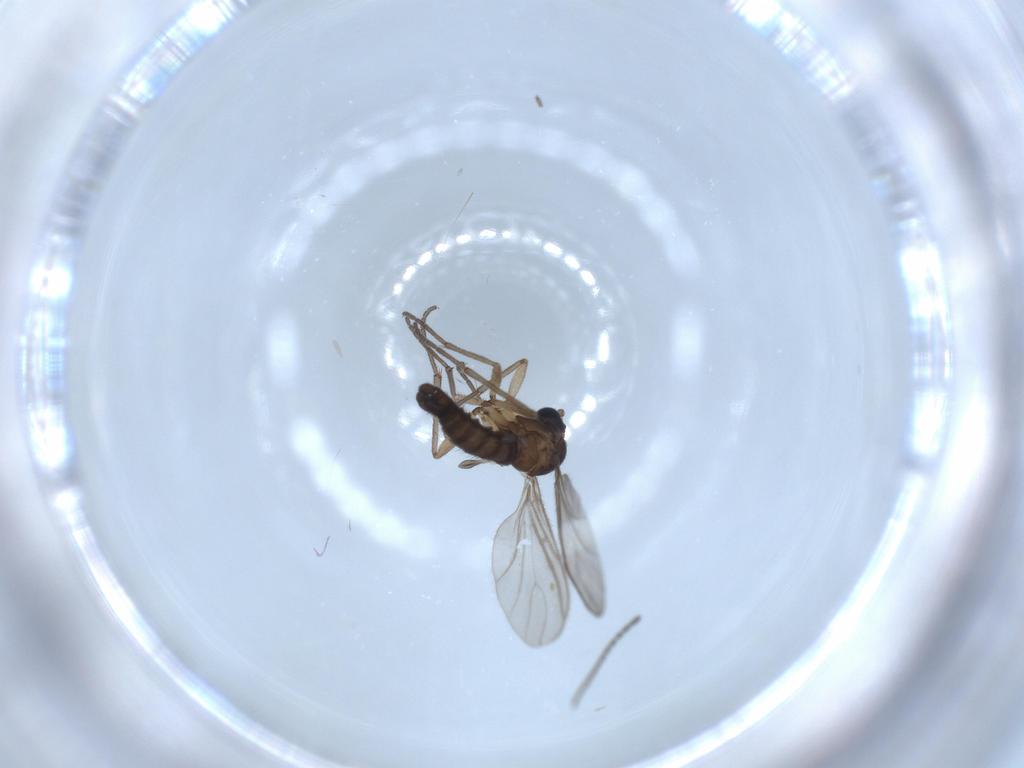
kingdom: Animalia
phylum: Arthropoda
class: Insecta
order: Diptera
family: Sciaridae
